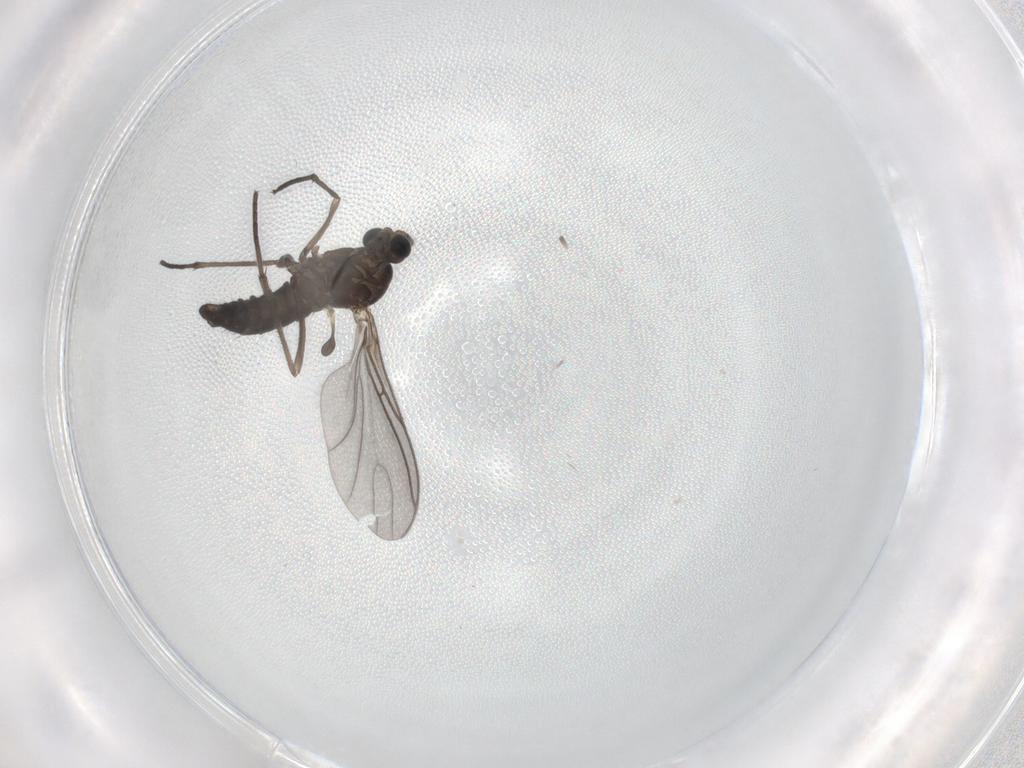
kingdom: Animalia
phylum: Arthropoda
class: Insecta
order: Diptera
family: Sciaridae
